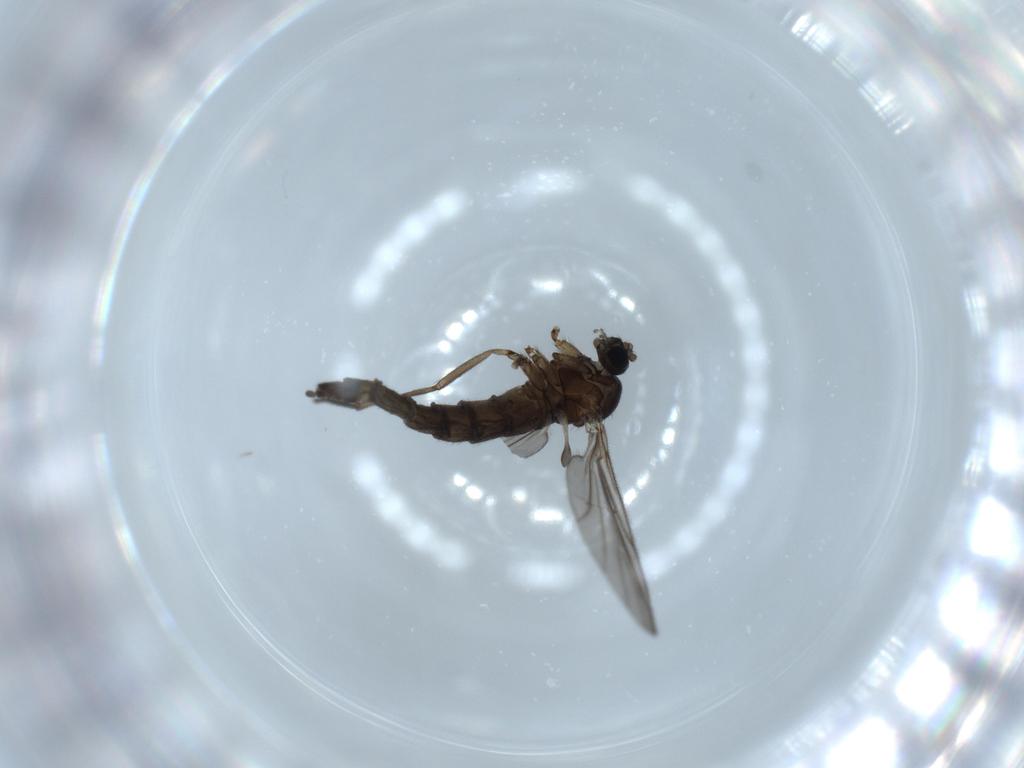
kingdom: Animalia
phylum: Arthropoda
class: Insecta
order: Diptera
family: Sciaridae
